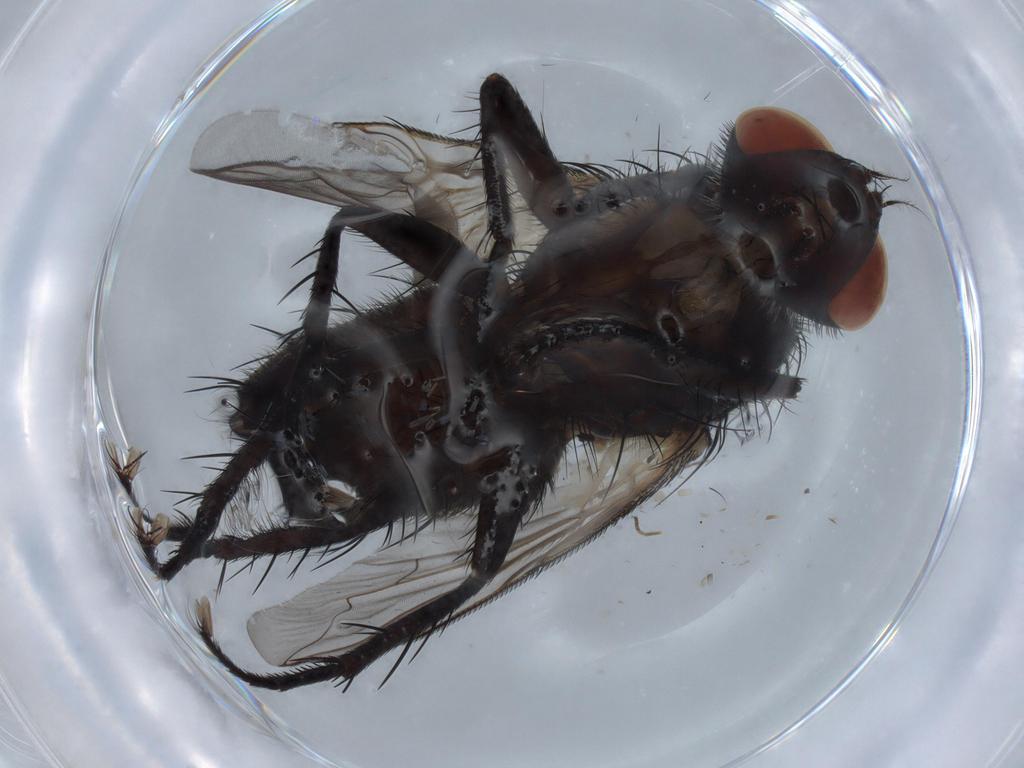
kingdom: Animalia
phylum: Arthropoda
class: Insecta
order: Diptera
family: Sarcophagidae
